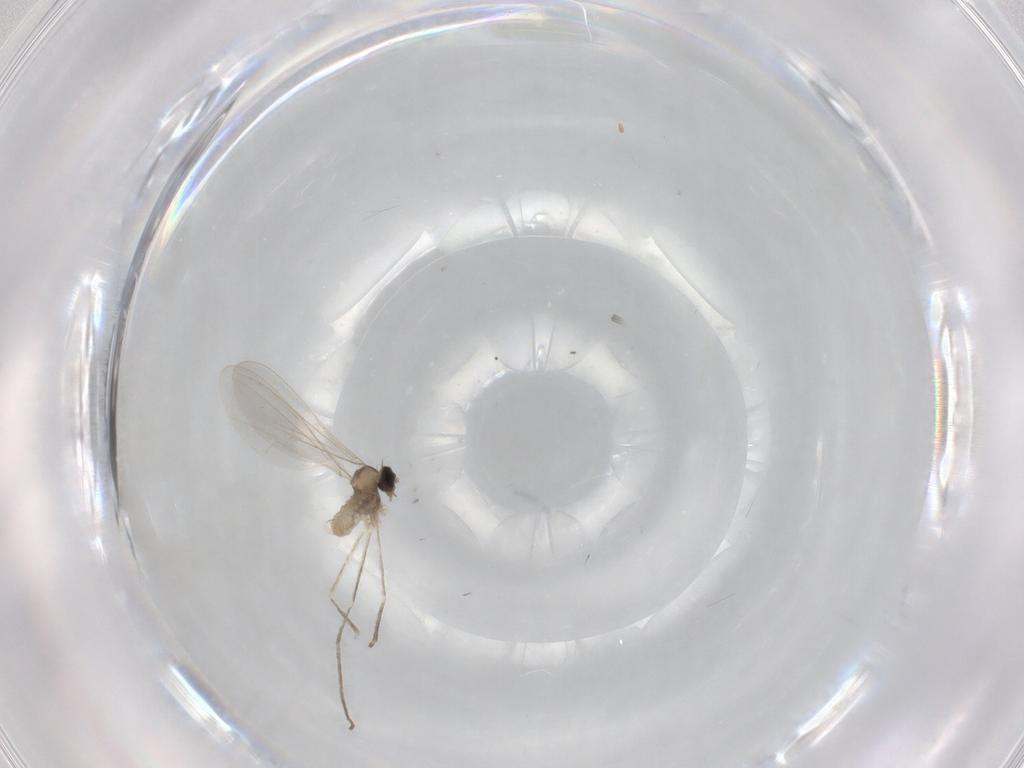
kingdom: Animalia
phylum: Arthropoda
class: Insecta
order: Diptera
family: Cecidomyiidae
